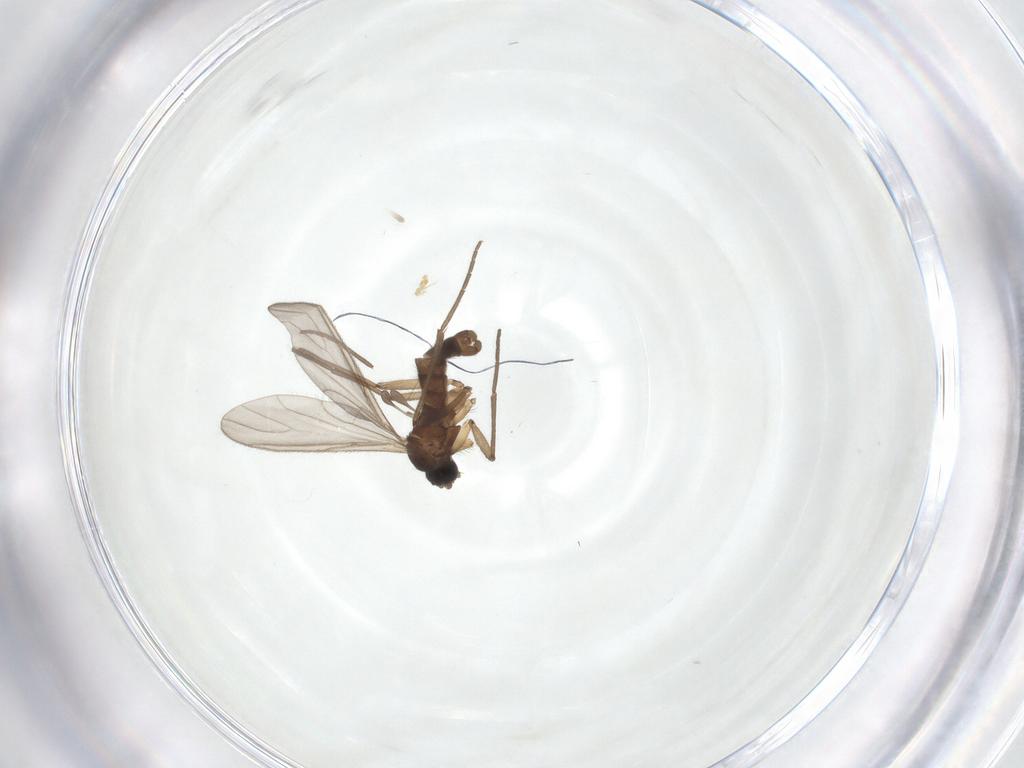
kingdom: Animalia
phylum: Arthropoda
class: Insecta
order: Diptera
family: Sciaridae
